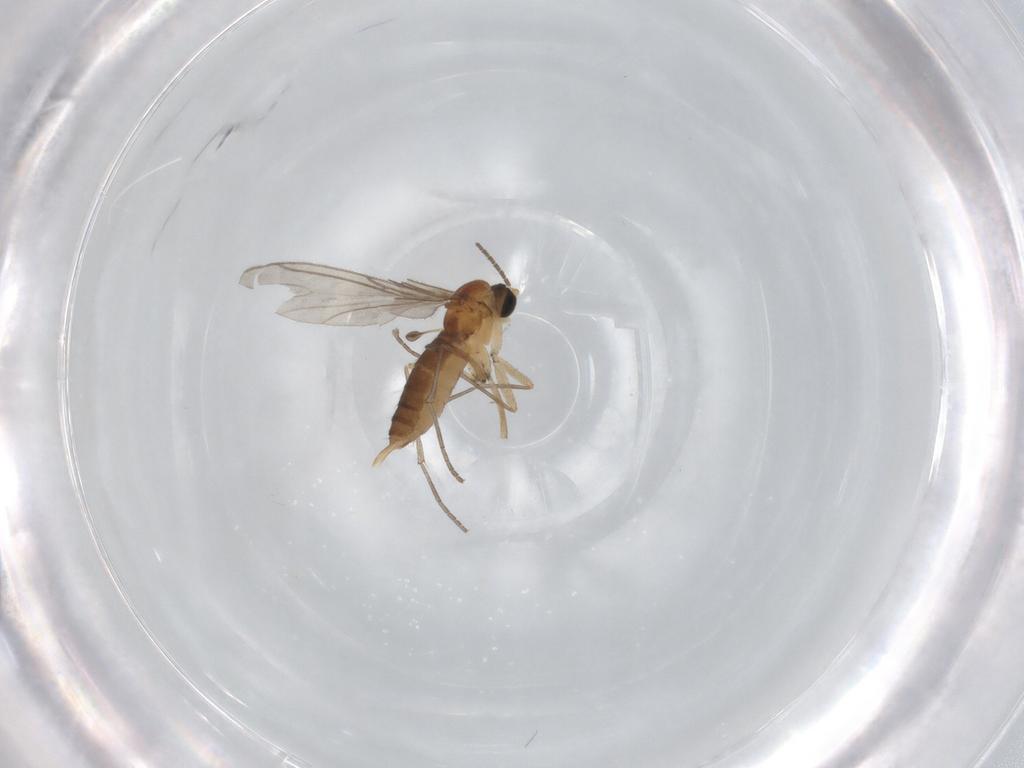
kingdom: Animalia
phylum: Arthropoda
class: Insecta
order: Diptera
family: Sciaridae
